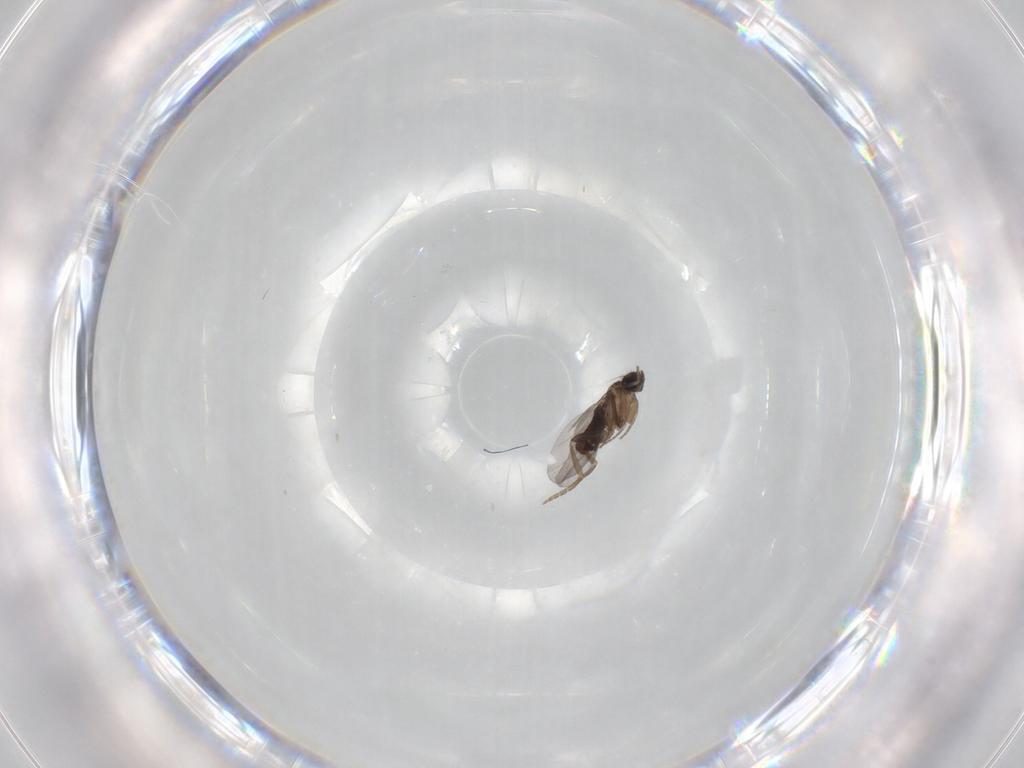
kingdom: Animalia
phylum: Arthropoda
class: Insecta
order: Diptera
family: Phoridae
